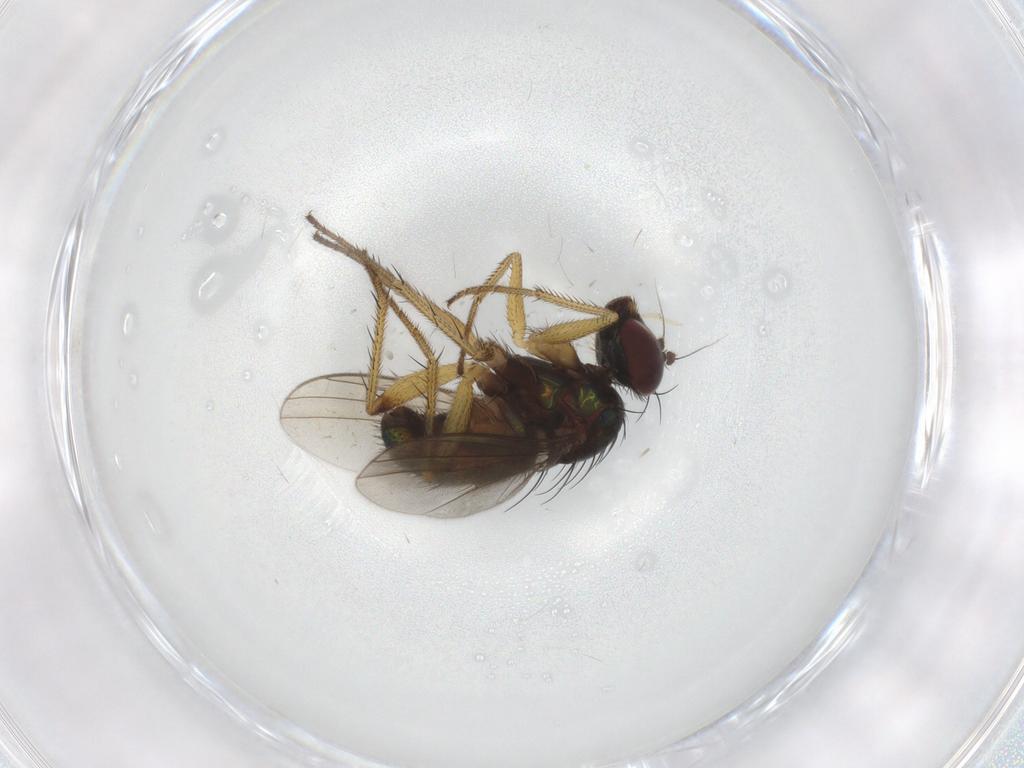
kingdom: Animalia
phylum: Arthropoda
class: Insecta
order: Diptera
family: Dolichopodidae
